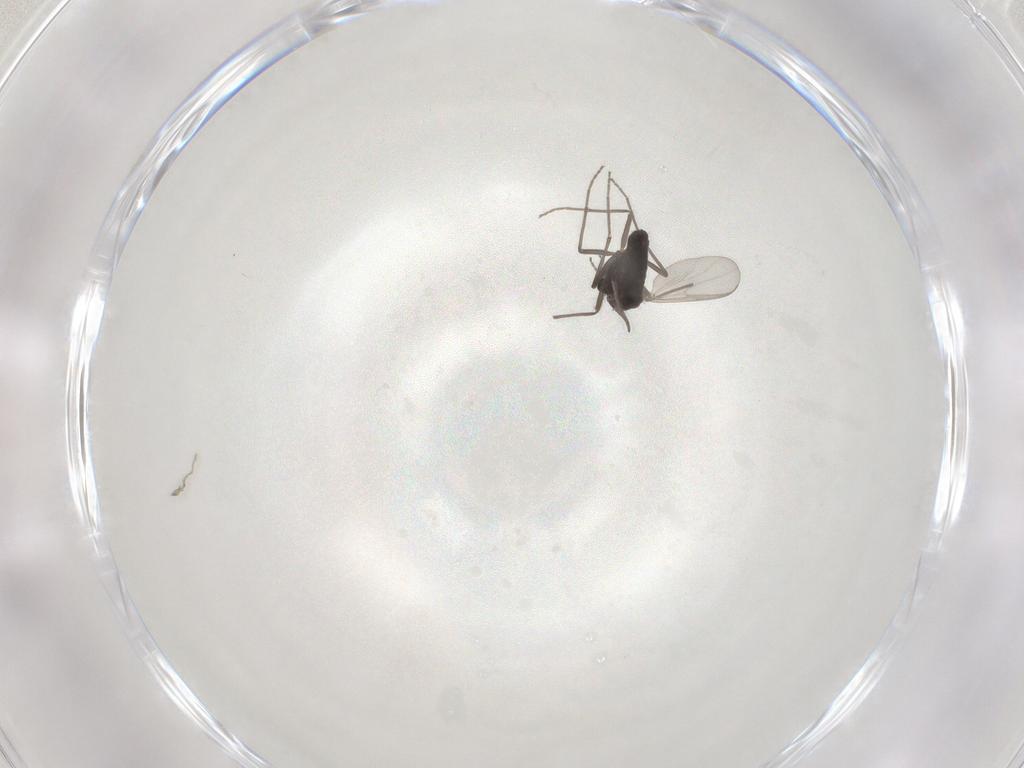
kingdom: Animalia
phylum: Arthropoda
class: Insecta
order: Diptera
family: Chironomidae
